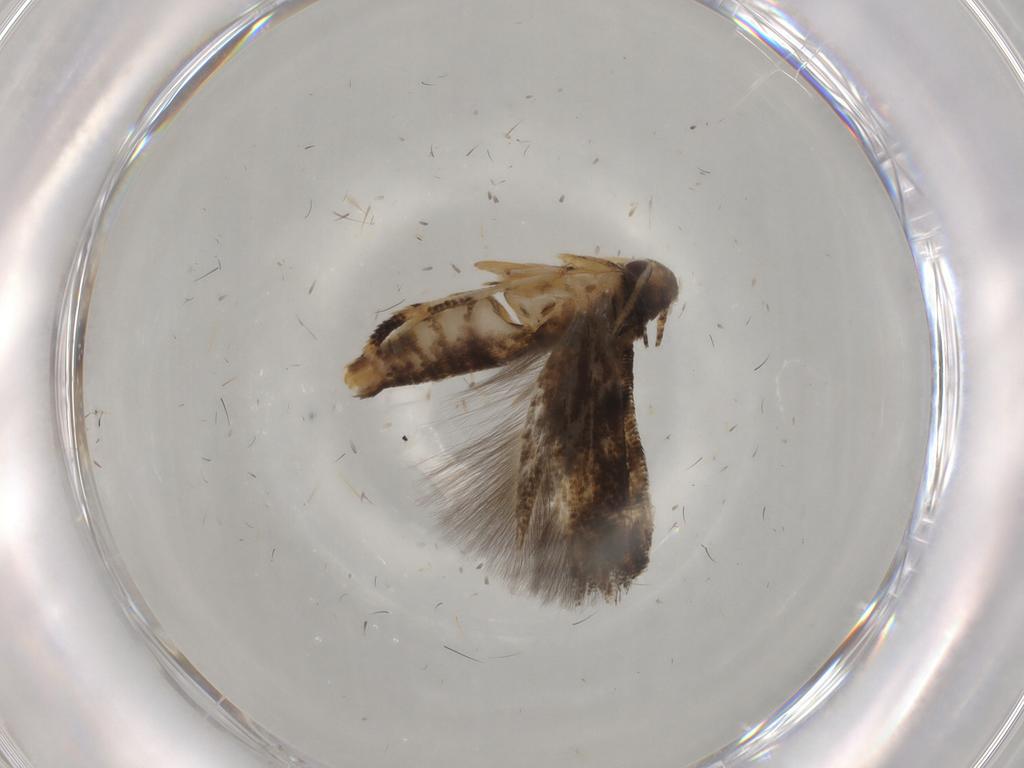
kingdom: Animalia
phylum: Arthropoda
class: Insecta
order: Lepidoptera
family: Momphidae
